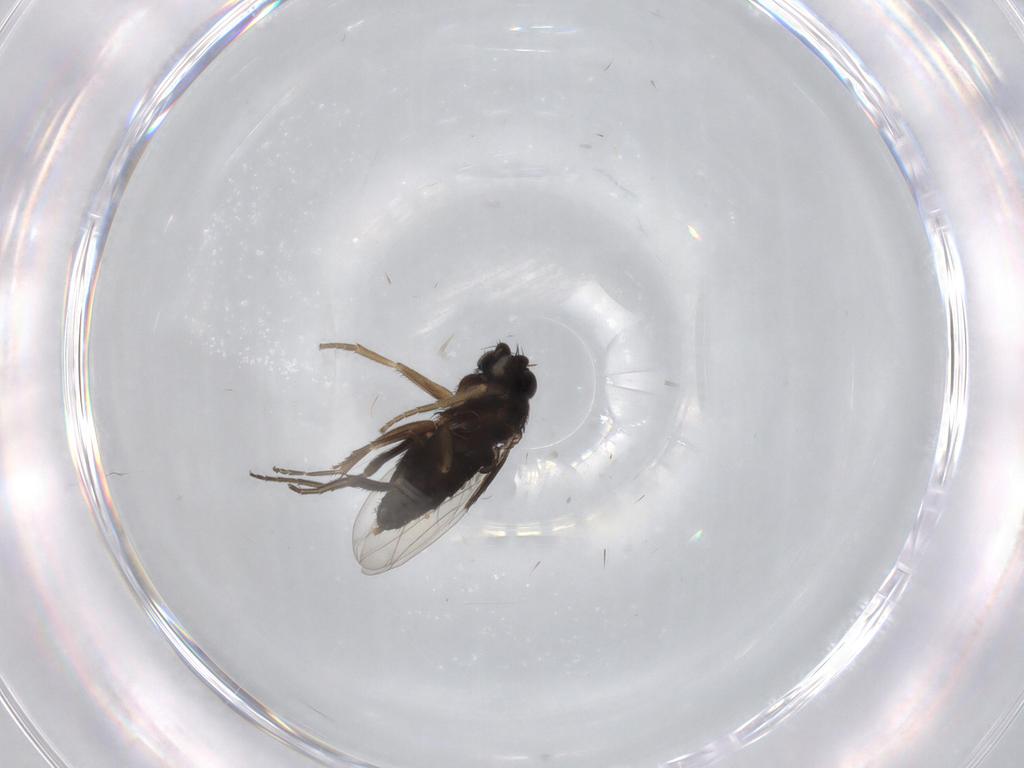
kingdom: Animalia
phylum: Arthropoda
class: Insecta
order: Diptera
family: Phoridae
